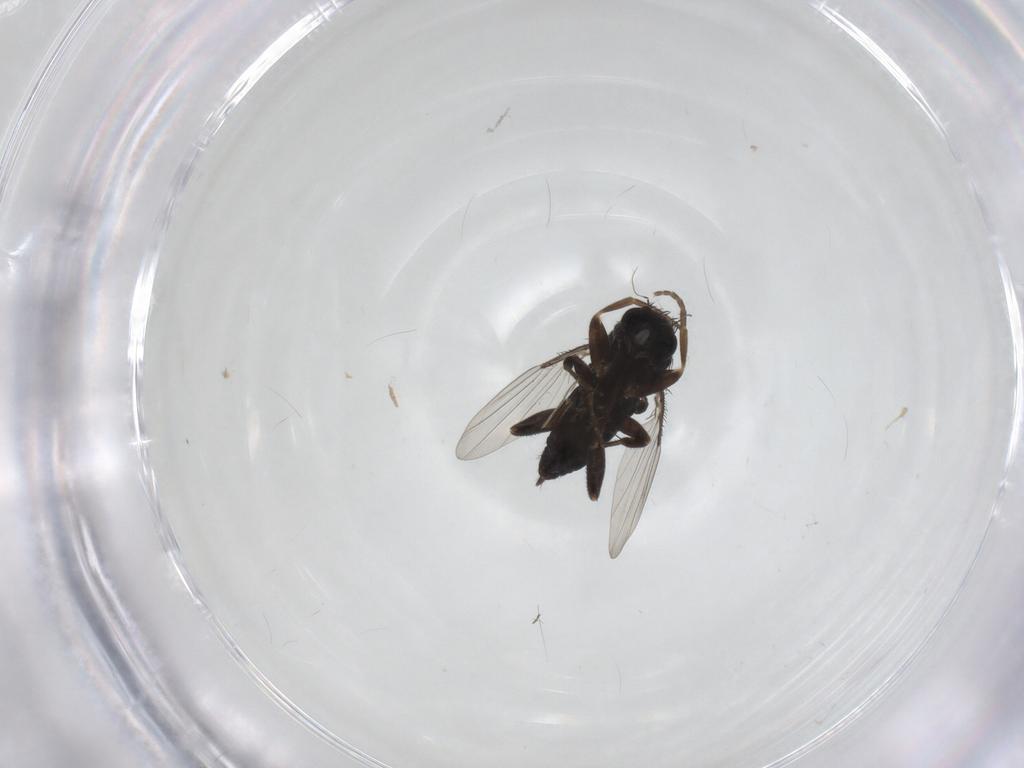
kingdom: Animalia
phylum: Arthropoda
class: Insecta
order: Diptera
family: Phoridae
